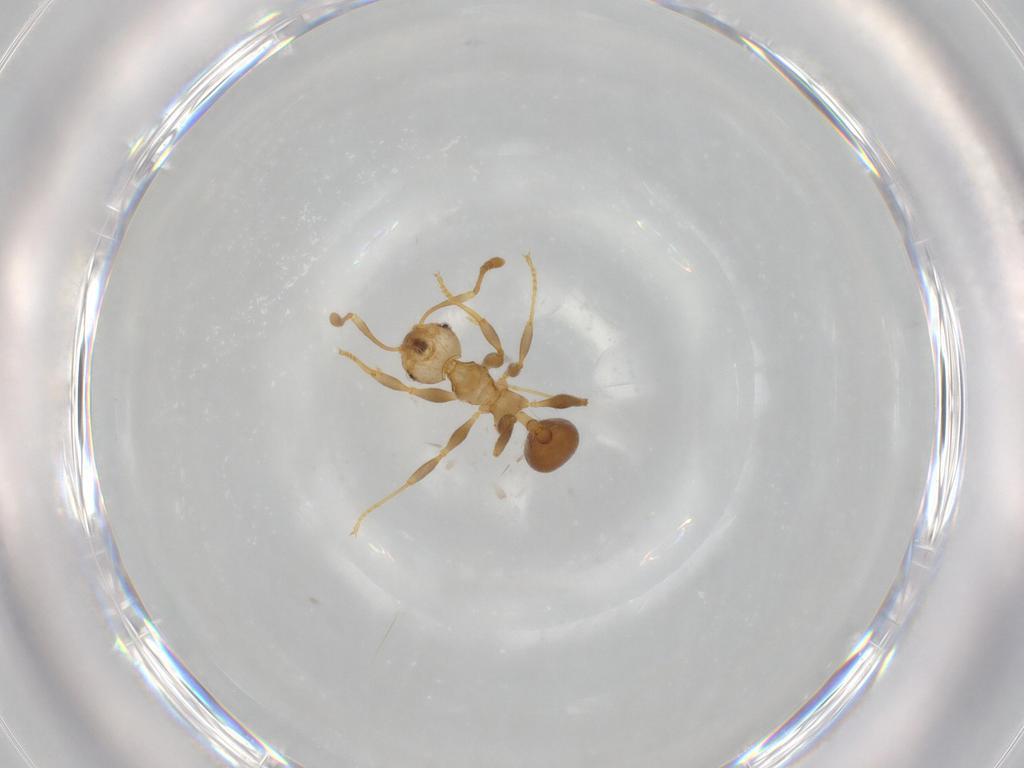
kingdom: Animalia
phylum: Arthropoda
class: Insecta
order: Hymenoptera
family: Formicidae
